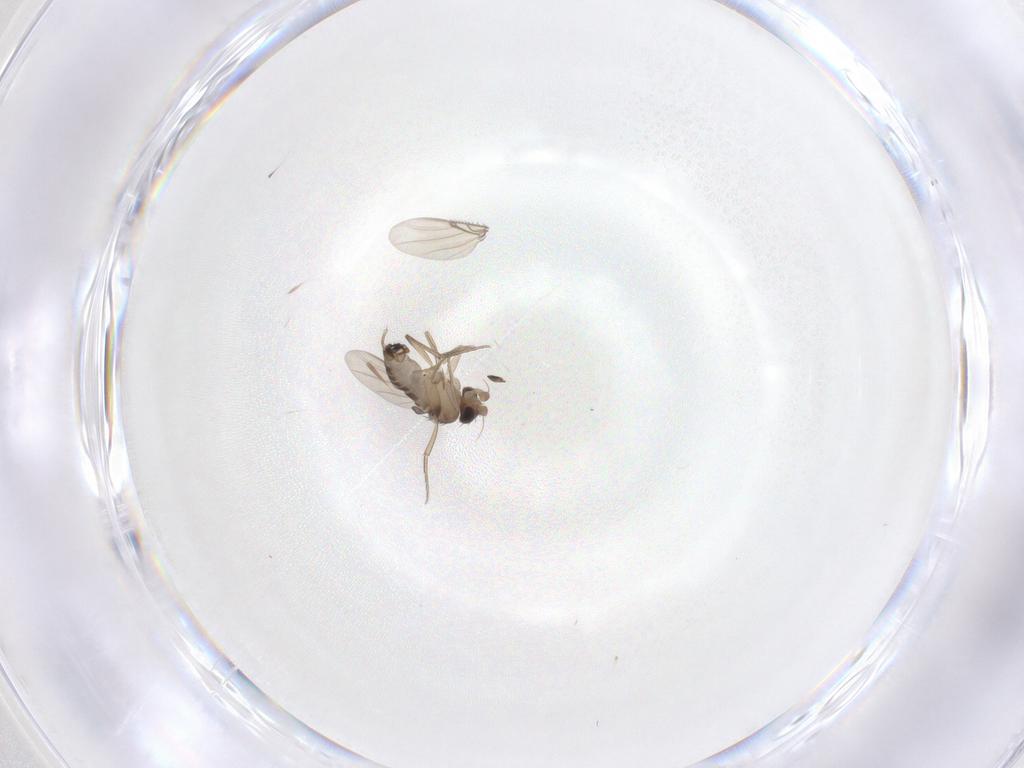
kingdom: Animalia
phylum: Arthropoda
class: Insecta
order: Diptera
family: Phoridae
